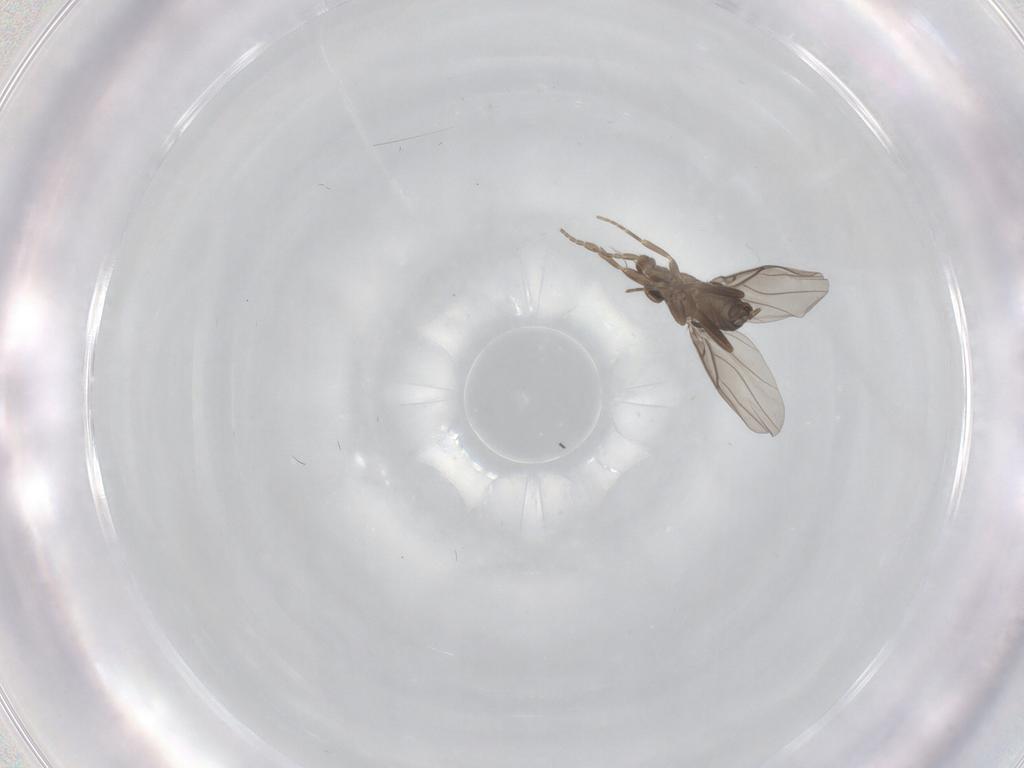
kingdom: Animalia
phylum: Arthropoda
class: Insecta
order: Diptera
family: Phoridae
